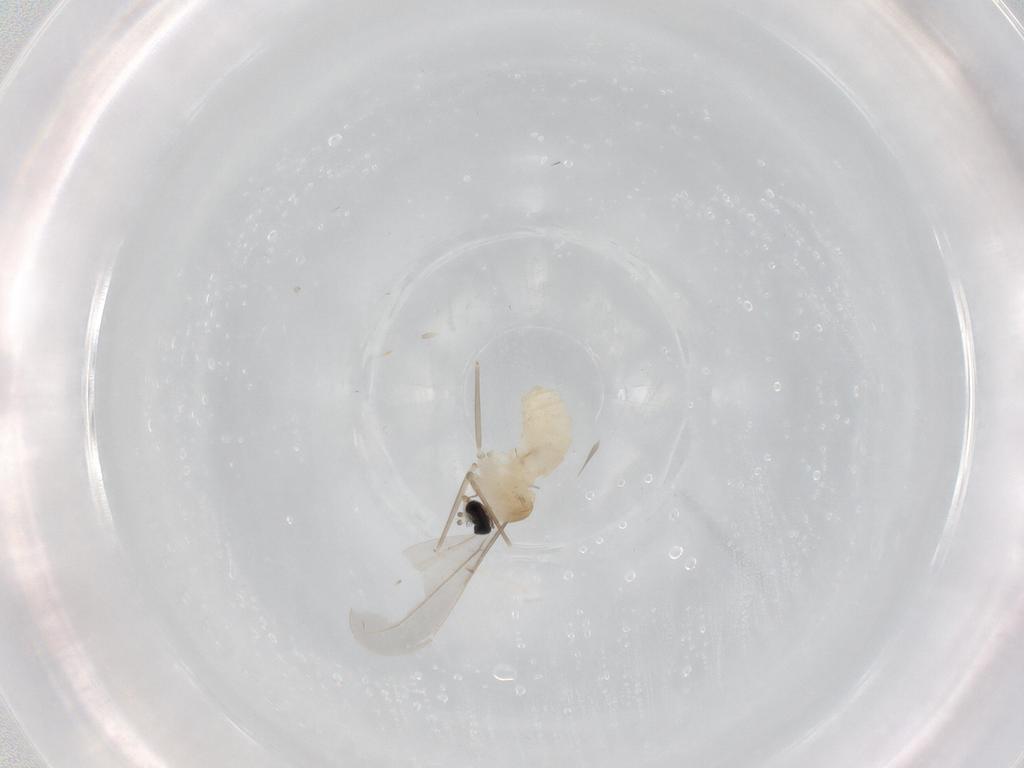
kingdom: Animalia
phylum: Arthropoda
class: Insecta
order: Diptera
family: Cecidomyiidae
